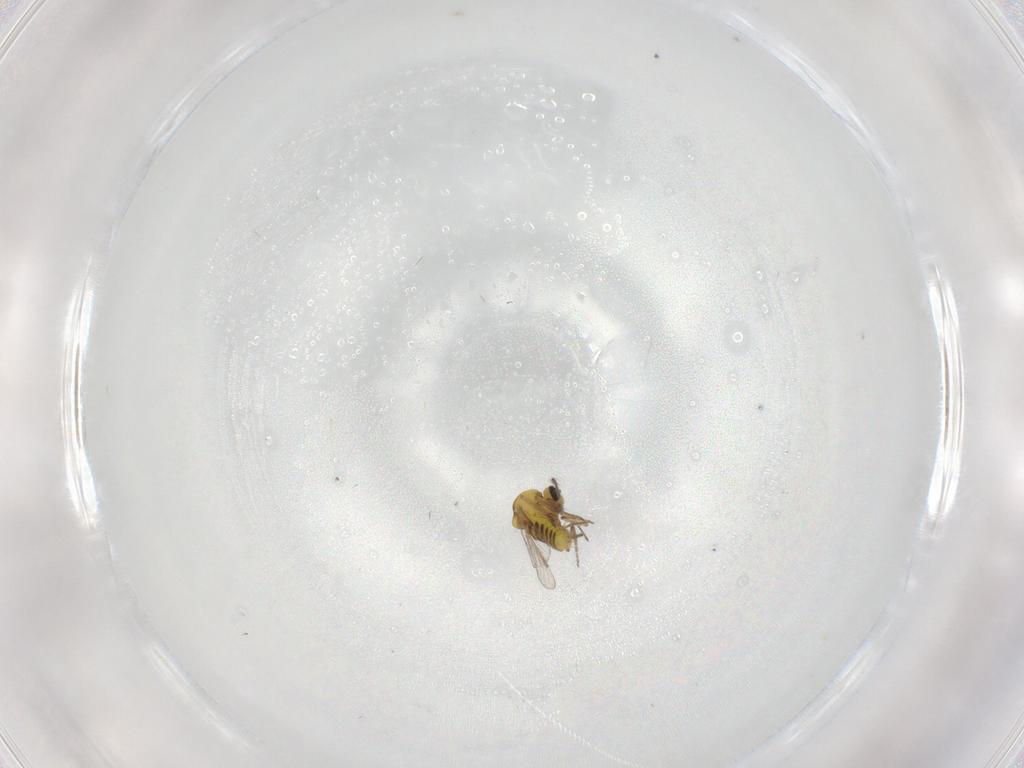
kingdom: Animalia
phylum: Arthropoda
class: Insecta
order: Diptera
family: Ceratopogonidae
